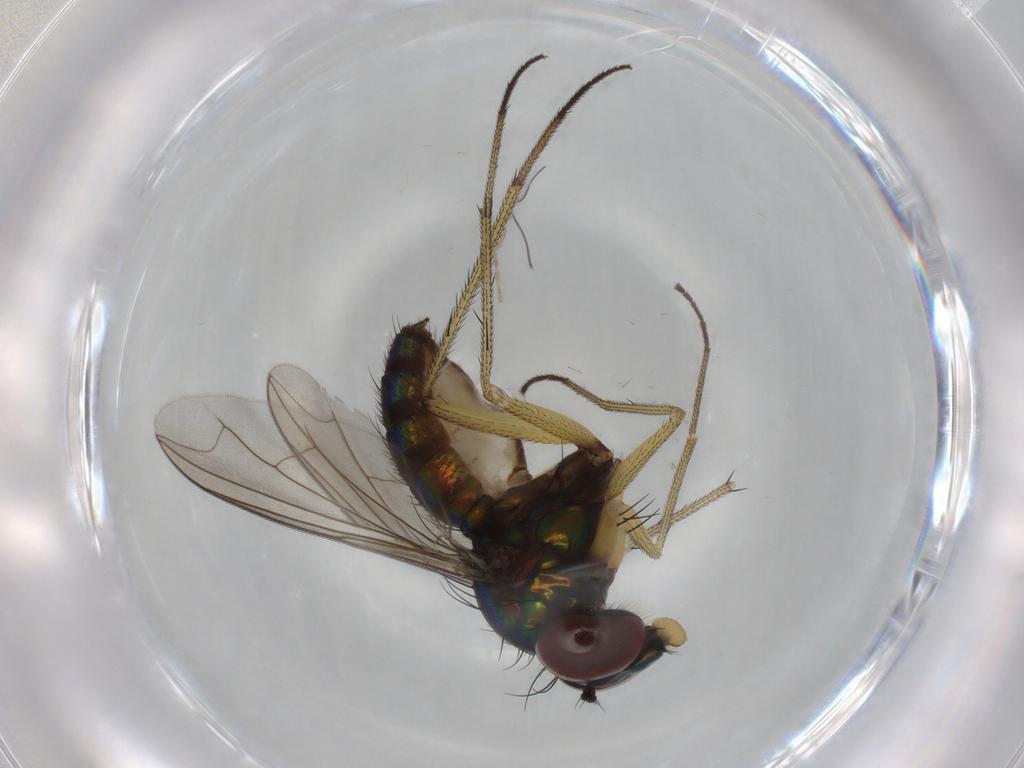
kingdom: Animalia
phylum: Arthropoda
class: Insecta
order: Diptera
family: Dolichopodidae
